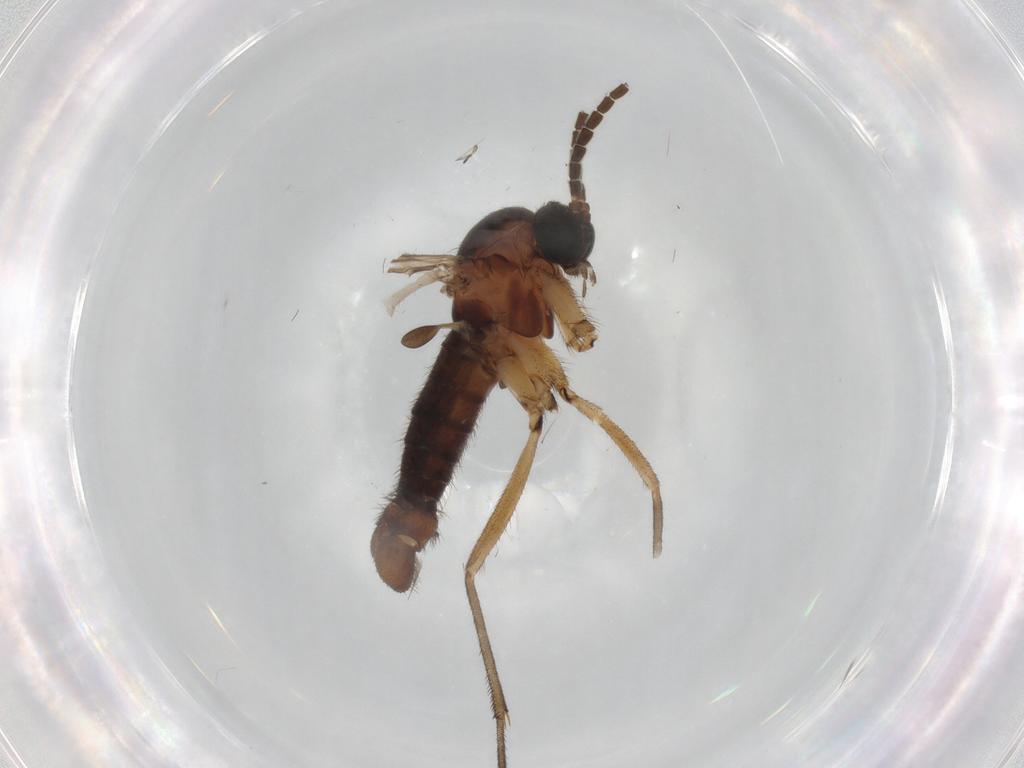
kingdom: Animalia
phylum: Arthropoda
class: Insecta
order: Diptera
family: Sciaridae
